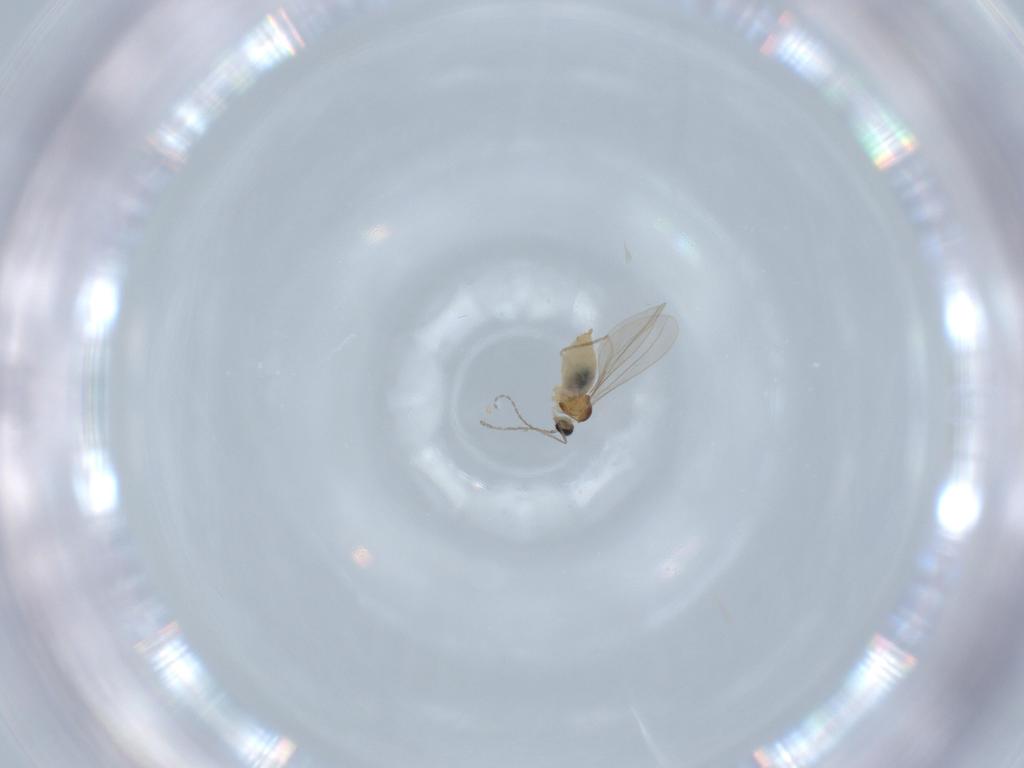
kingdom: Animalia
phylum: Arthropoda
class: Insecta
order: Diptera
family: Cecidomyiidae
